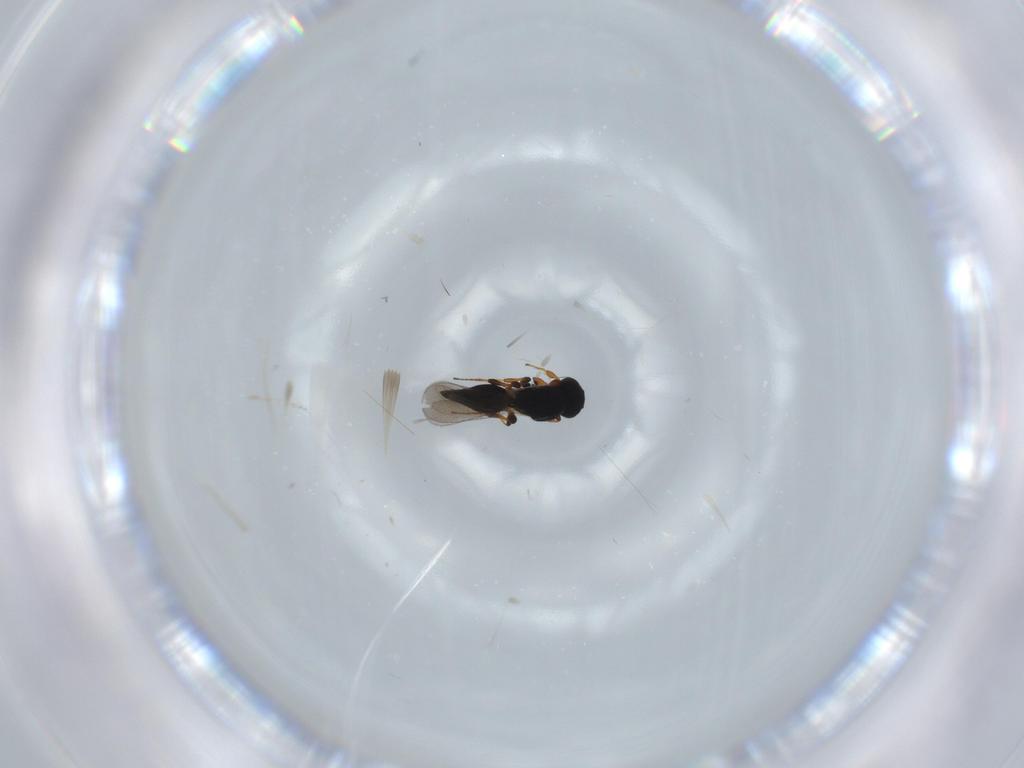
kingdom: Animalia
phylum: Arthropoda
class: Insecta
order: Hymenoptera
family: Platygastridae
